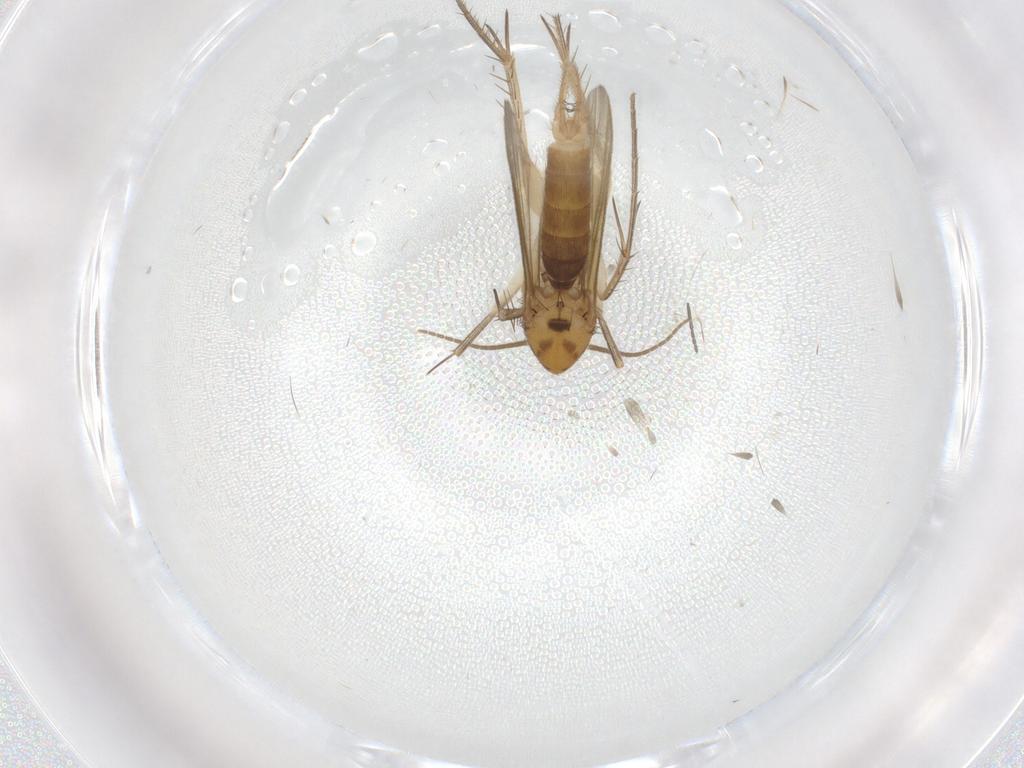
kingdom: Animalia
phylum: Arthropoda
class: Insecta
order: Diptera
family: Mycetophilidae
